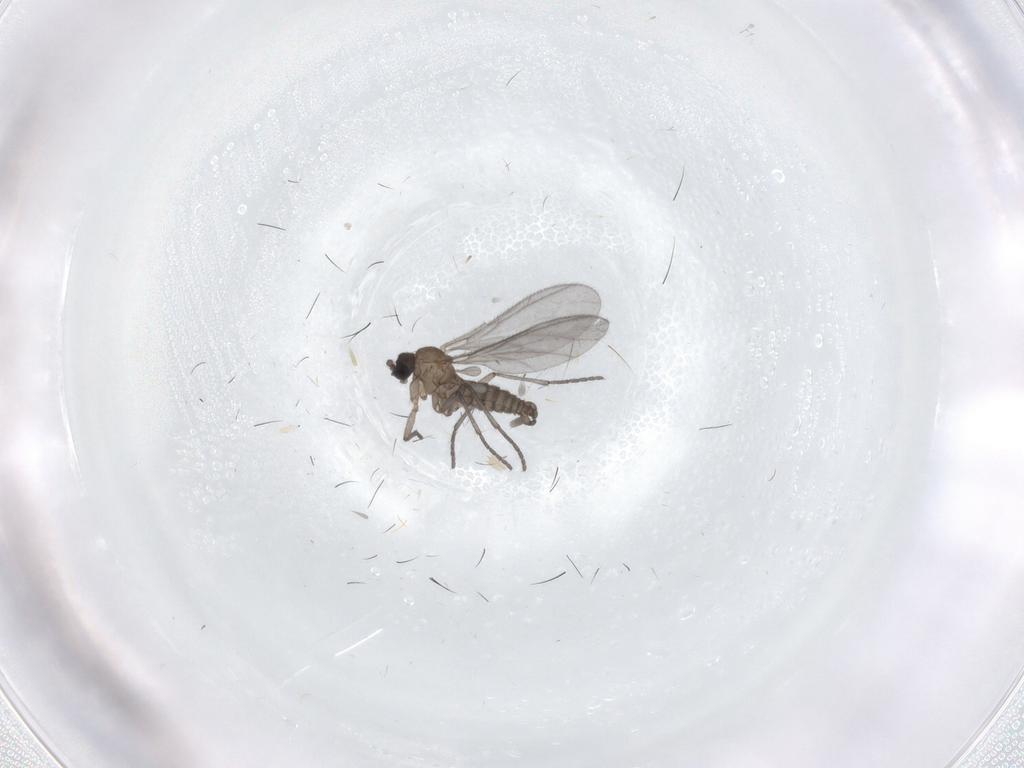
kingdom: Animalia
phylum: Arthropoda
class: Insecta
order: Diptera
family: Sciaridae
